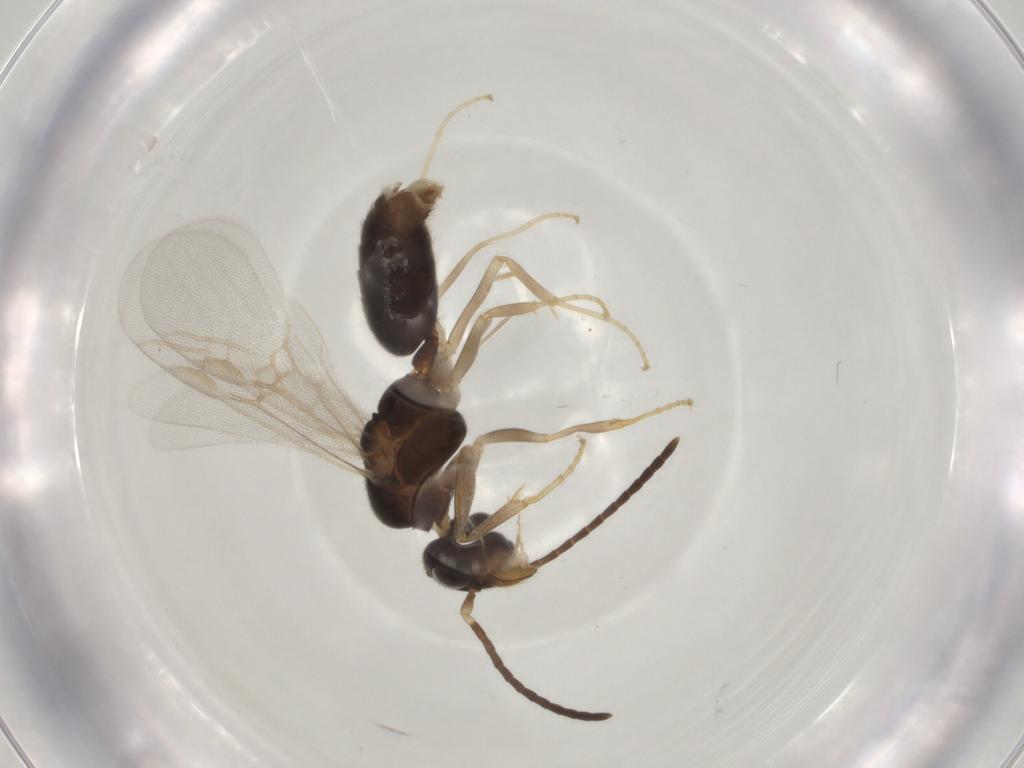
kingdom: Animalia
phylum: Arthropoda
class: Insecta
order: Hymenoptera
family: Formicidae
